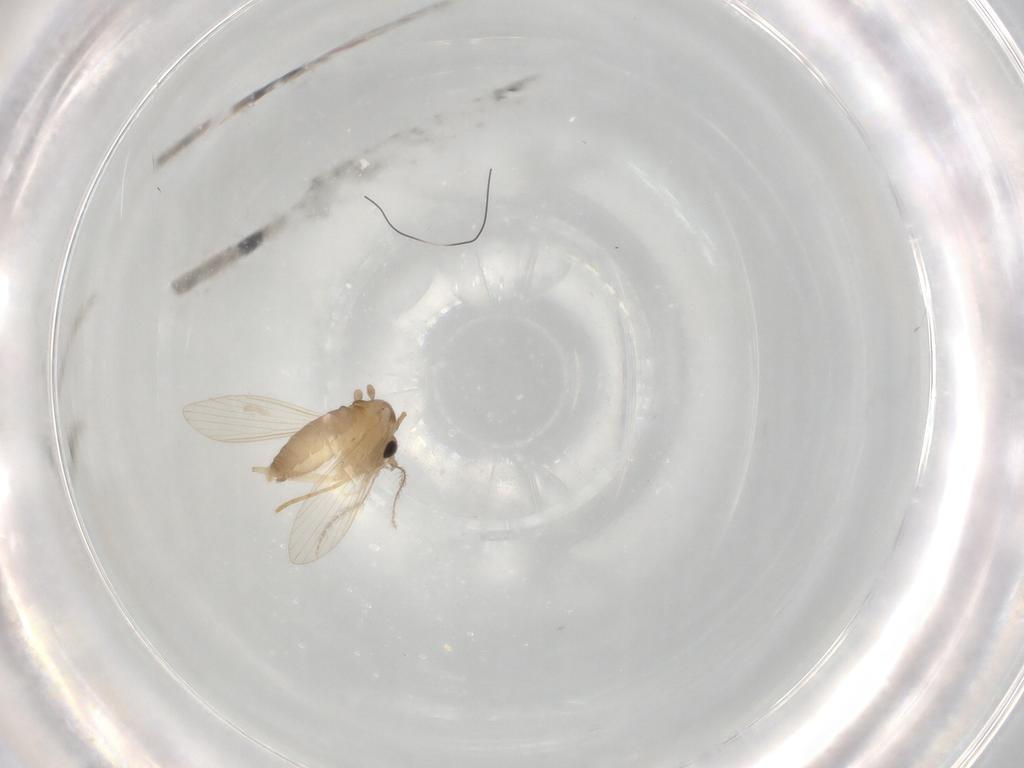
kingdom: Animalia
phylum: Arthropoda
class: Insecta
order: Diptera
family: Psychodidae
